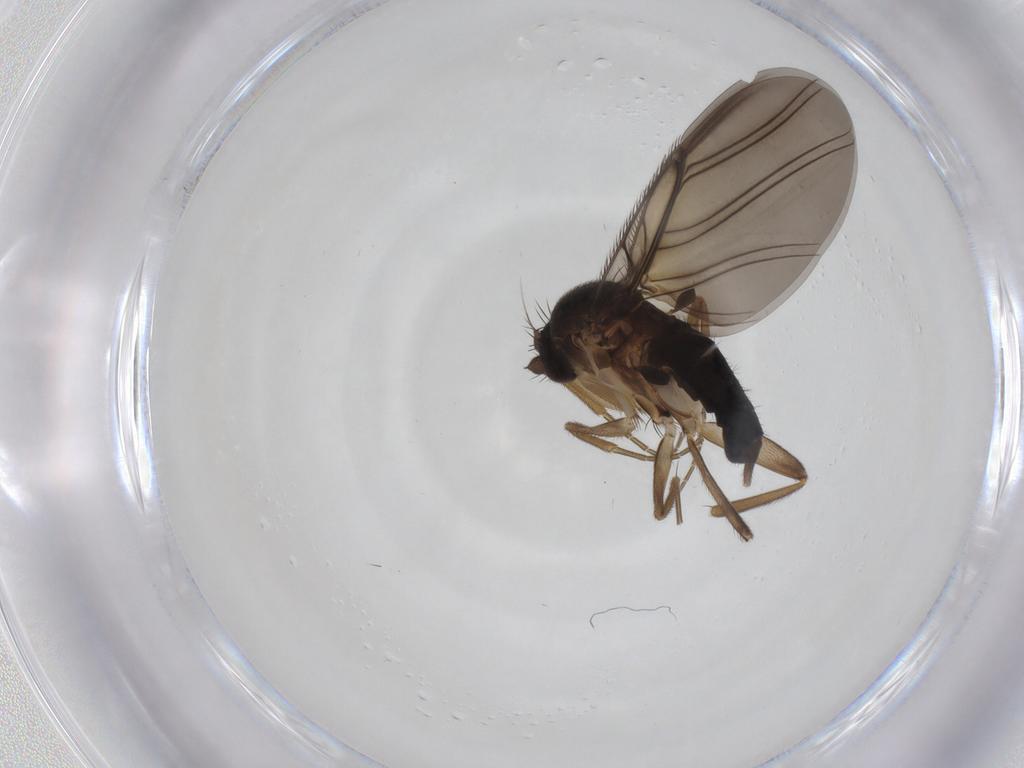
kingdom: Animalia
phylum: Arthropoda
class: Insecta
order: Diptera
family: Phoridae
